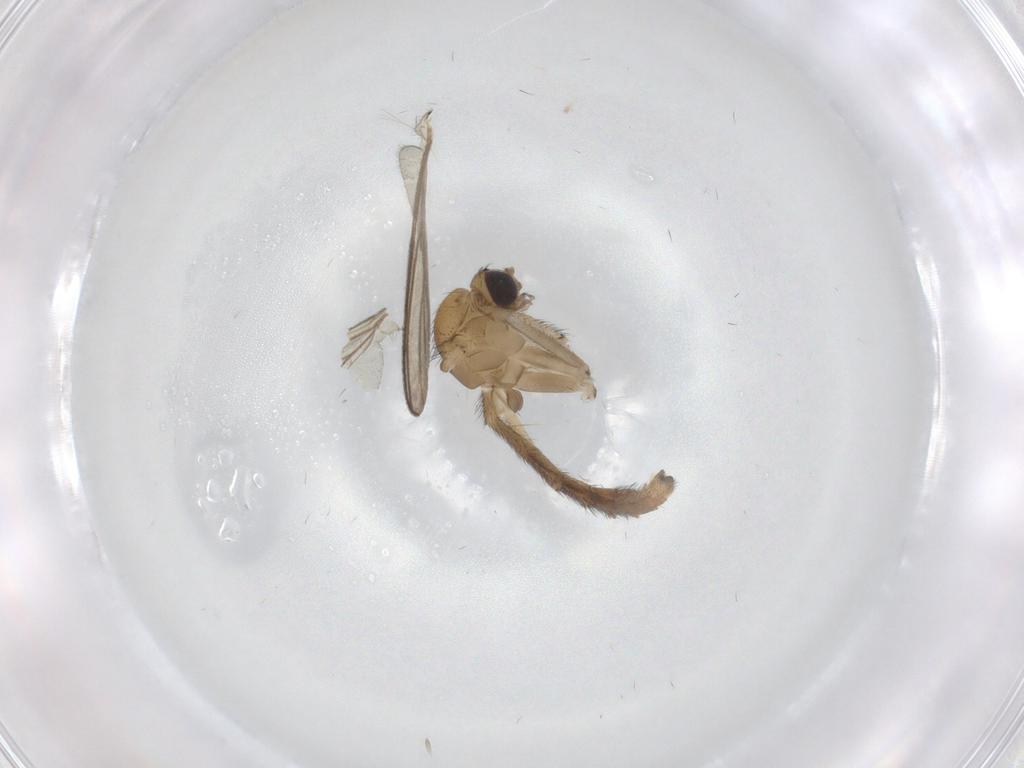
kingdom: Animalia
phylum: Arthropoda
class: Insecta
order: Diptera
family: Keroplatidae
